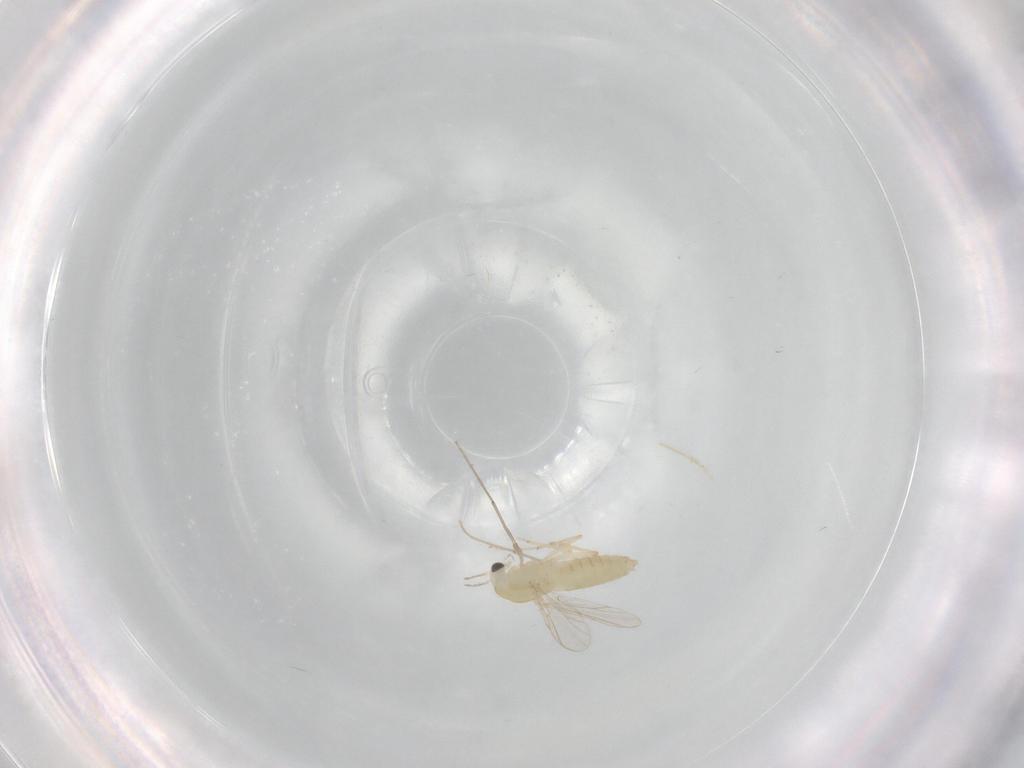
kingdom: Animalia
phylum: Arthropoda
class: Insecta
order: Diptera
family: Chironomidae
